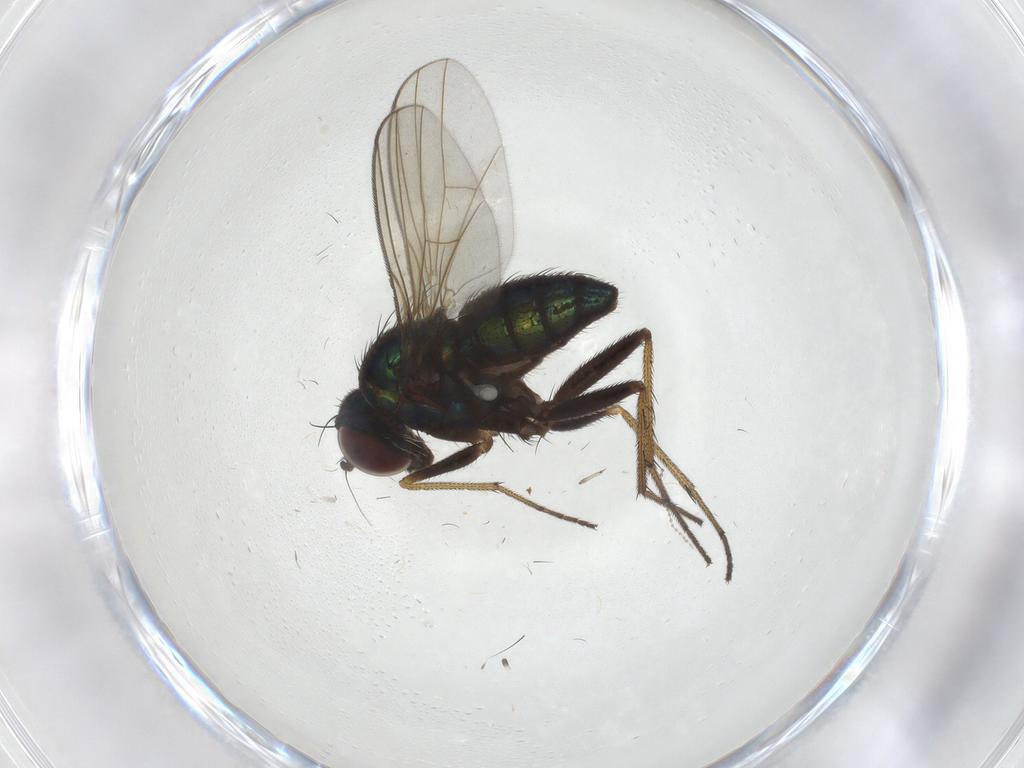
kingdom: Animalia
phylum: Arthropoda
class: Insecta
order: Diptera
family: Dolichopodidae
